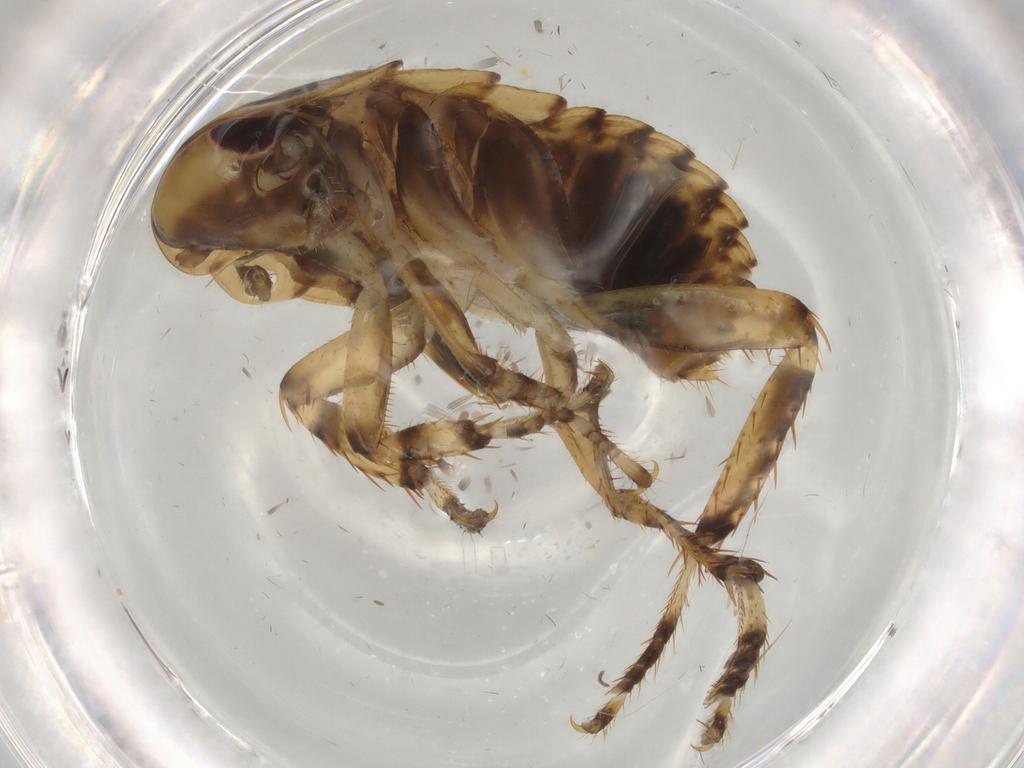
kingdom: Animalia
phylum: Arthropoda
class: Insecta
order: Blattodea
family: Blattidae
